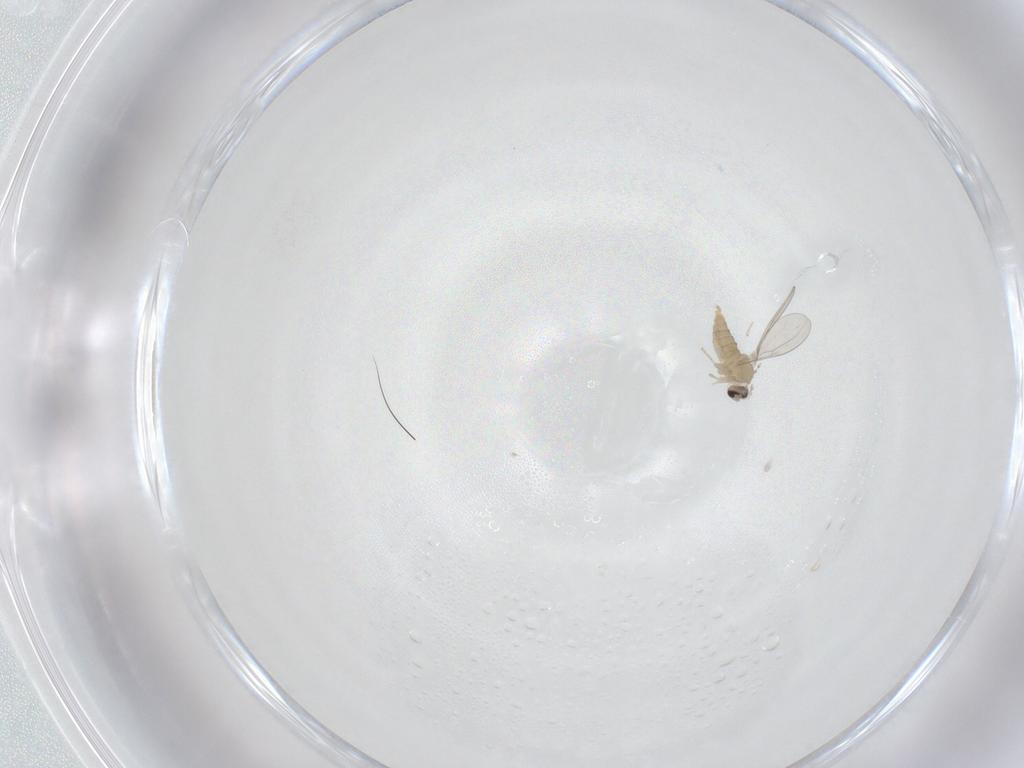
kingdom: Animalia
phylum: Arthropoda
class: Insecta
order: Diptera
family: Cecidomyiidae
